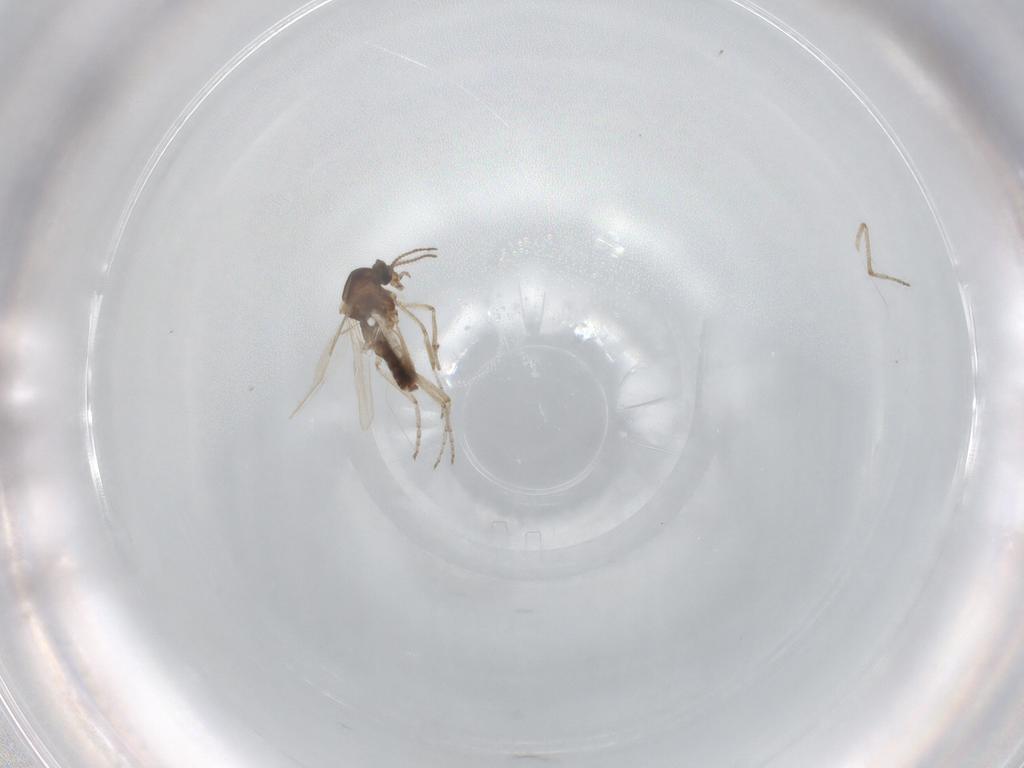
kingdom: Animalia
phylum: Arthropoda
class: Insecta
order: Diptera
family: Ceratopogonidae
